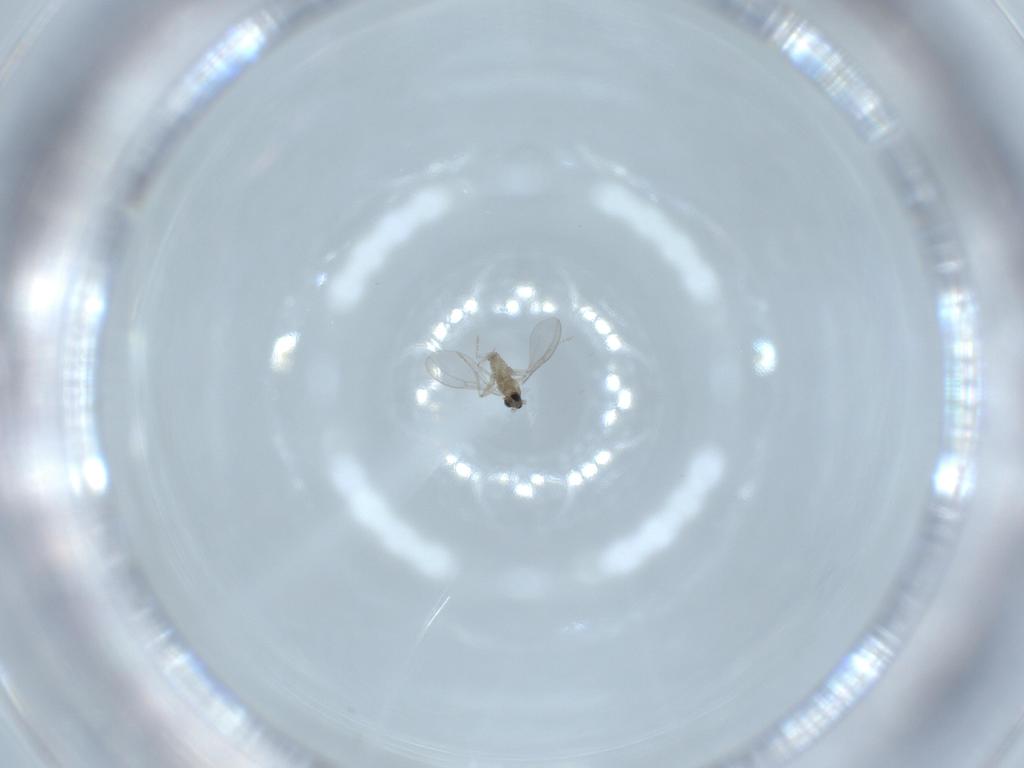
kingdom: Animalia
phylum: Arthropoda
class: Insecta
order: Diptera
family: Cecidomyiidae
